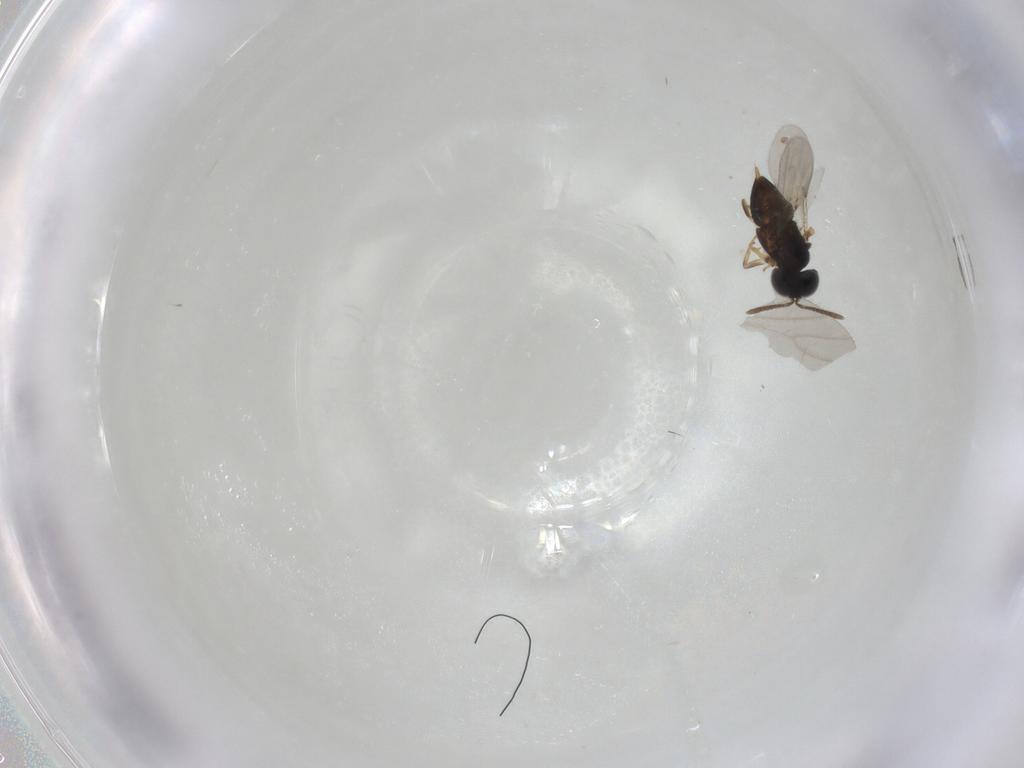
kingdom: Animalia
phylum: Arthropoda
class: Insecta
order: Hymenoptera
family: Encyrtidae
